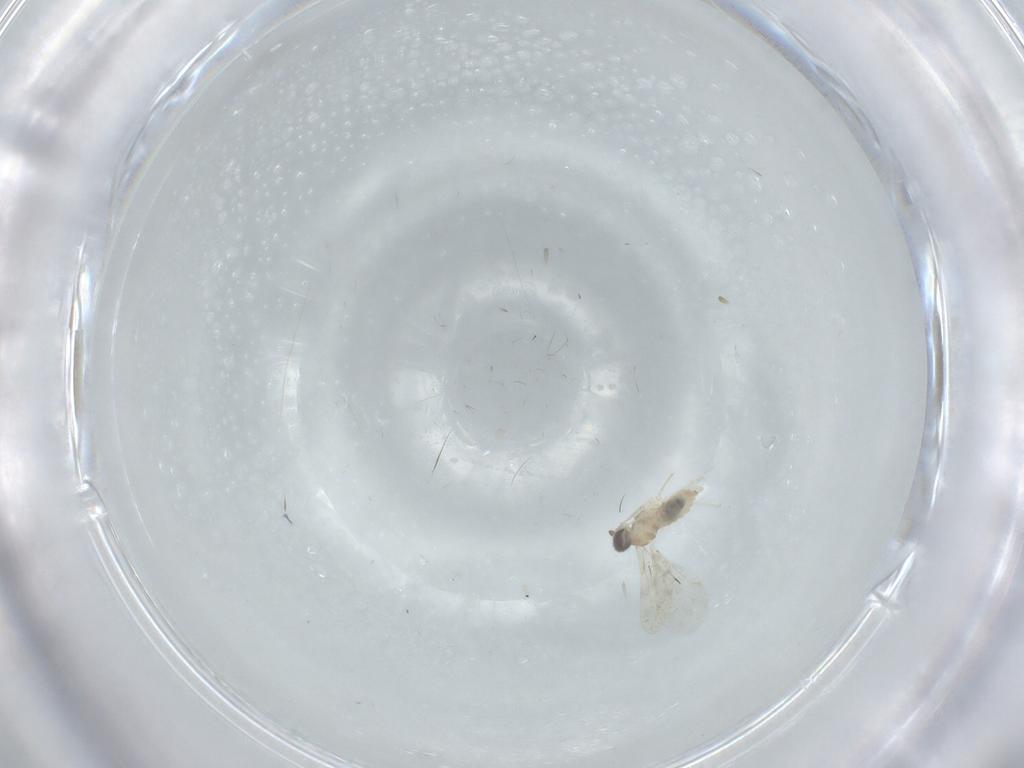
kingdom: Animalia
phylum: Arthropoda
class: Insecta
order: Diptera
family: Cecidomyiidae
